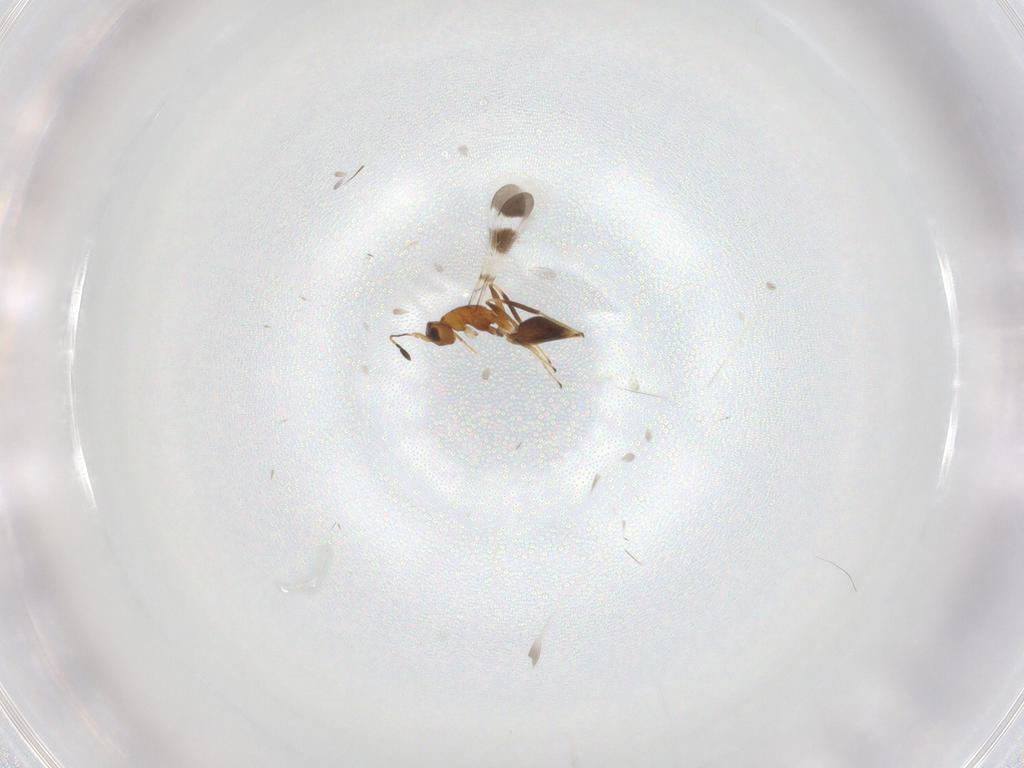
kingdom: Animalia
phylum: Arthropoda
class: Insecta
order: Hymenoptera
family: Mymaridae
